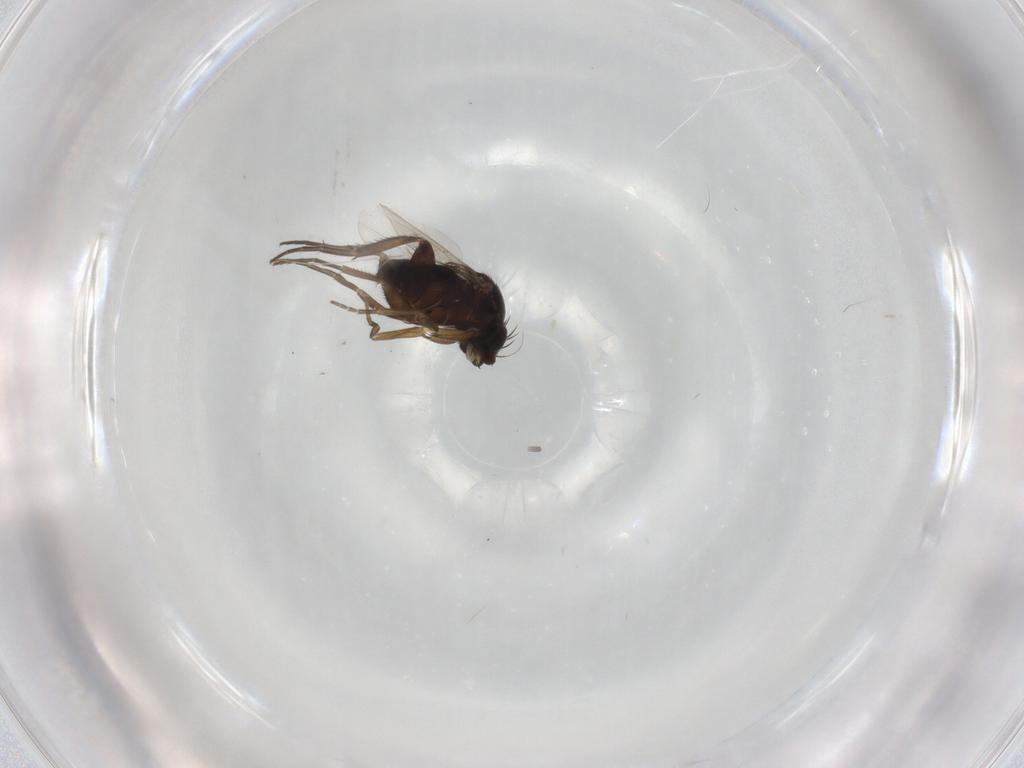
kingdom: Animalia
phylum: Arthropoda
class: Insecta
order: Diptera
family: Phoridae
